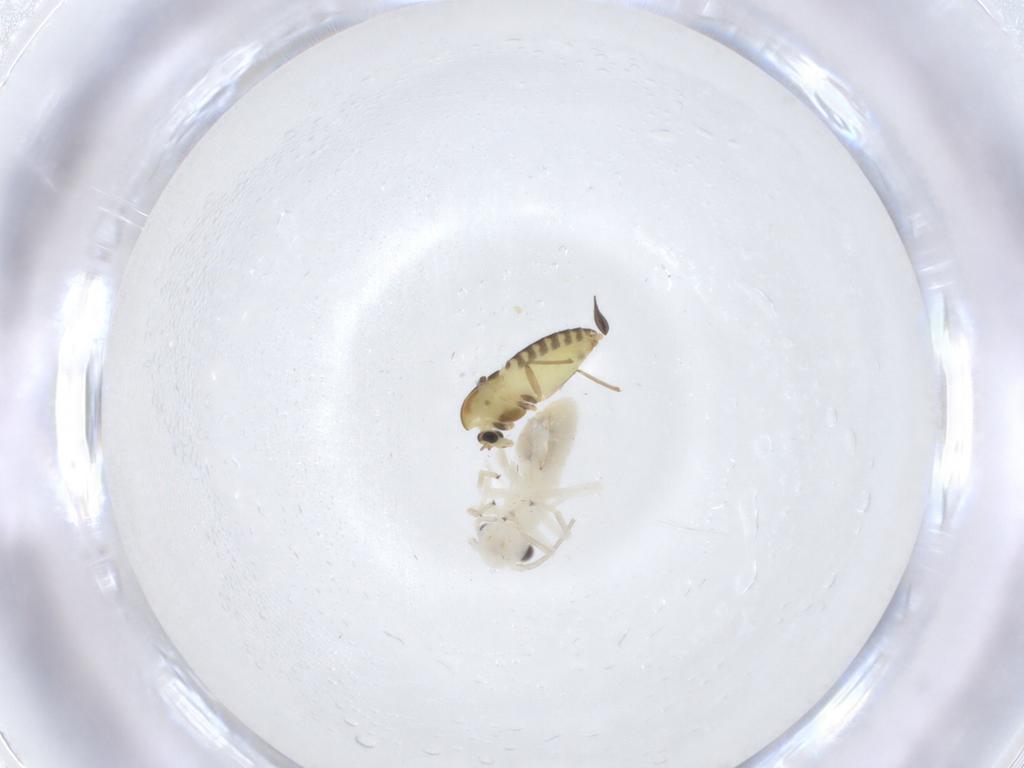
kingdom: Animalia
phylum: Arthropoda
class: Insecta
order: Psocodea
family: Caeciliusidae
